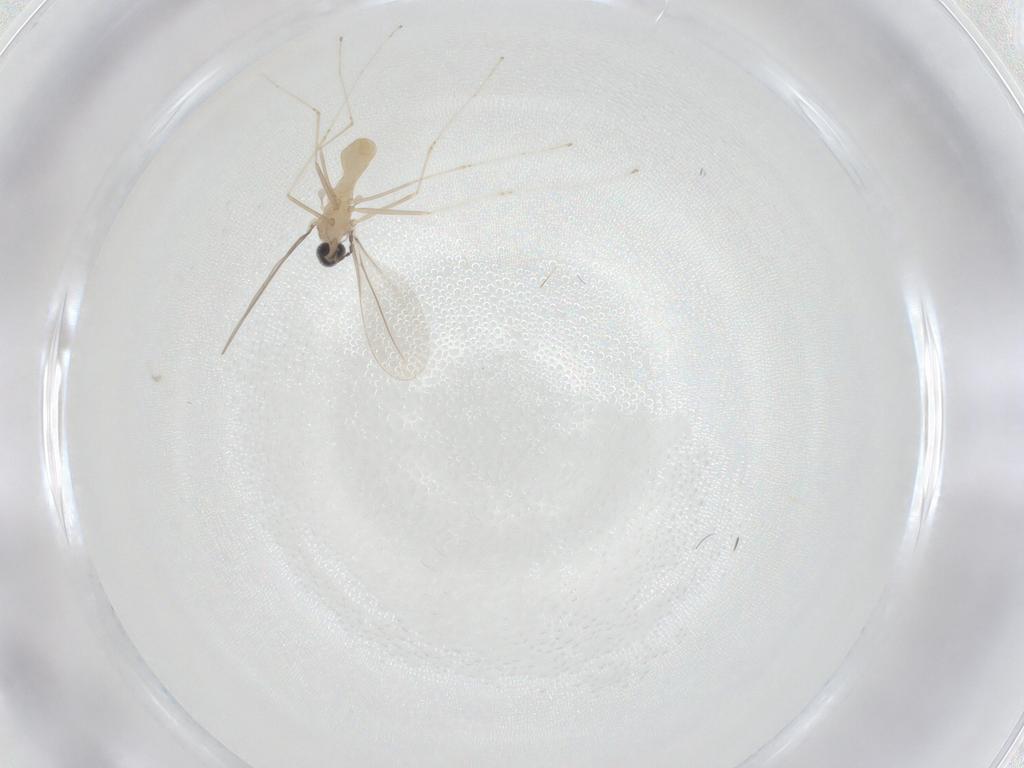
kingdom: Animalia
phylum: Arthropoda
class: Insecta
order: Diptera
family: Cecidomyiidae
